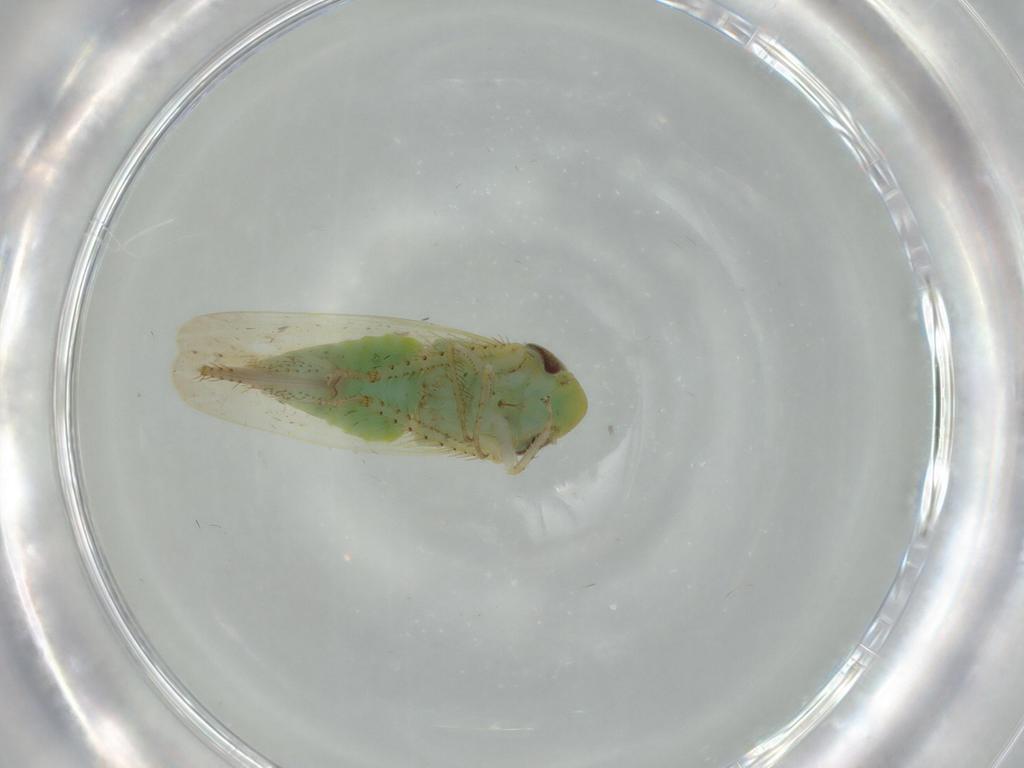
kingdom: Animalia
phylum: Arthropoda
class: Insecta
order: Hemiptera
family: Cicadellidae
